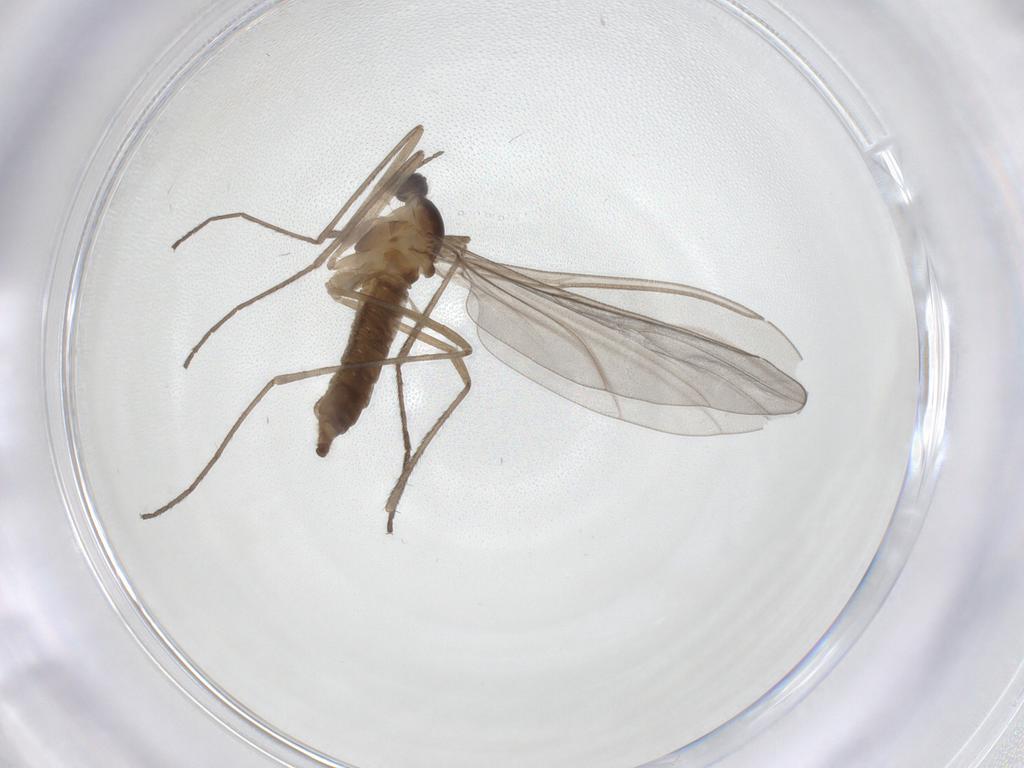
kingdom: Animalia
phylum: Arthropoda
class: Insecta
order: Diptera
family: Cecidomyiidae
